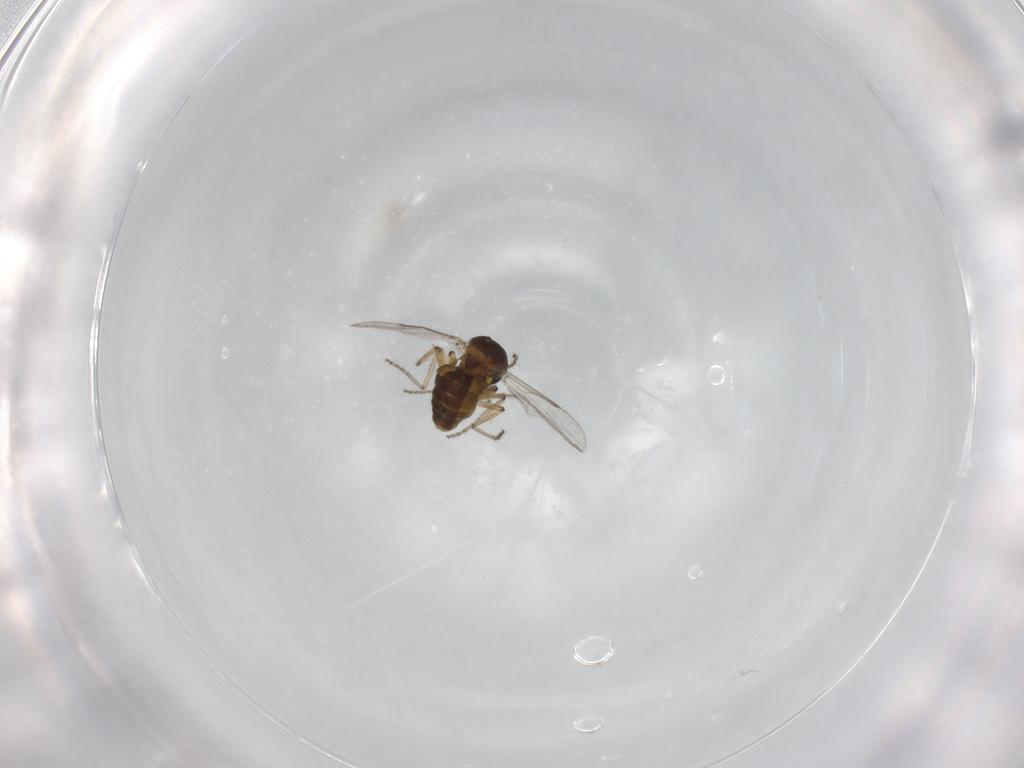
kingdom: Animalia
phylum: Arthropoda
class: Insecta
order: Diptera
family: Ceratopogonidae
